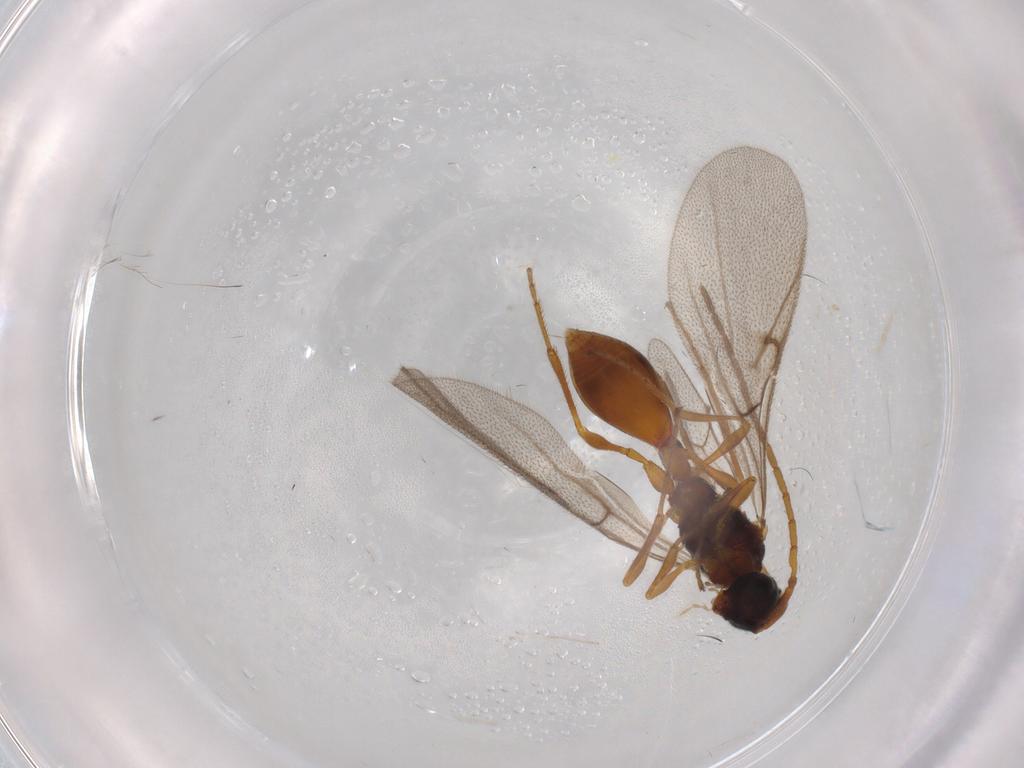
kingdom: Animalia
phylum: Arthropoda
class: Insecta
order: Hymenoptera
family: Diapriidae
